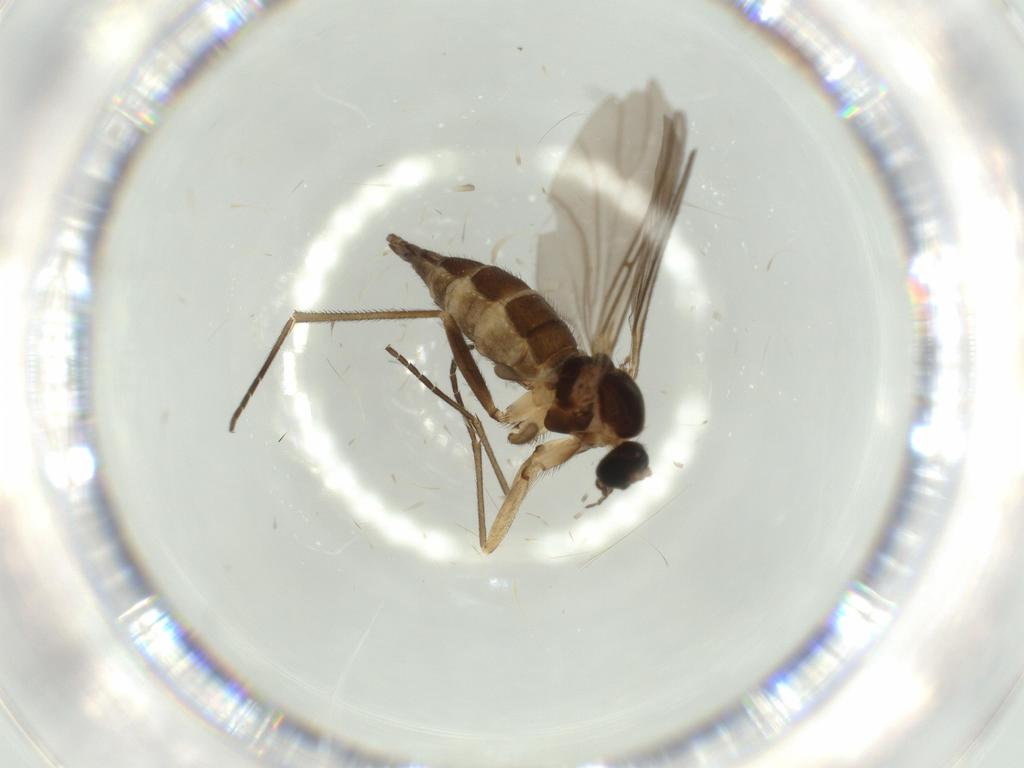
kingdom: Animalia
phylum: Arthropoda
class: Insecta
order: Diptera
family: Sciaridae
